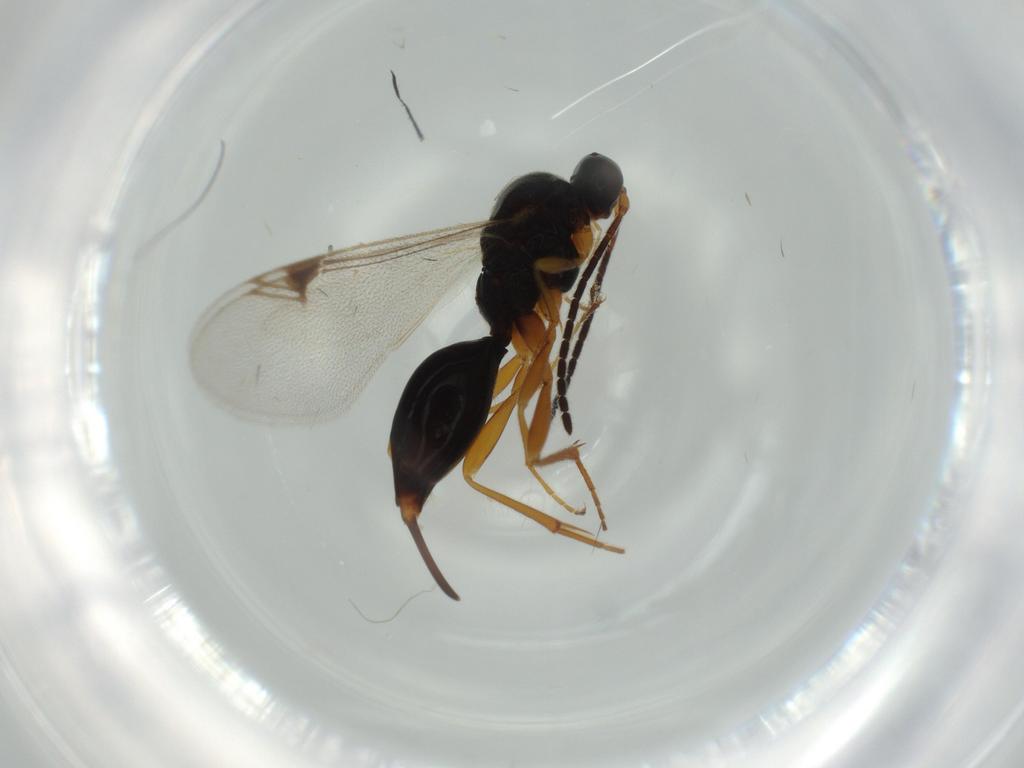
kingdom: Animalia
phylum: Arthropoda
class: Insecta
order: Hymenoptera
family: Proctotrupidae
